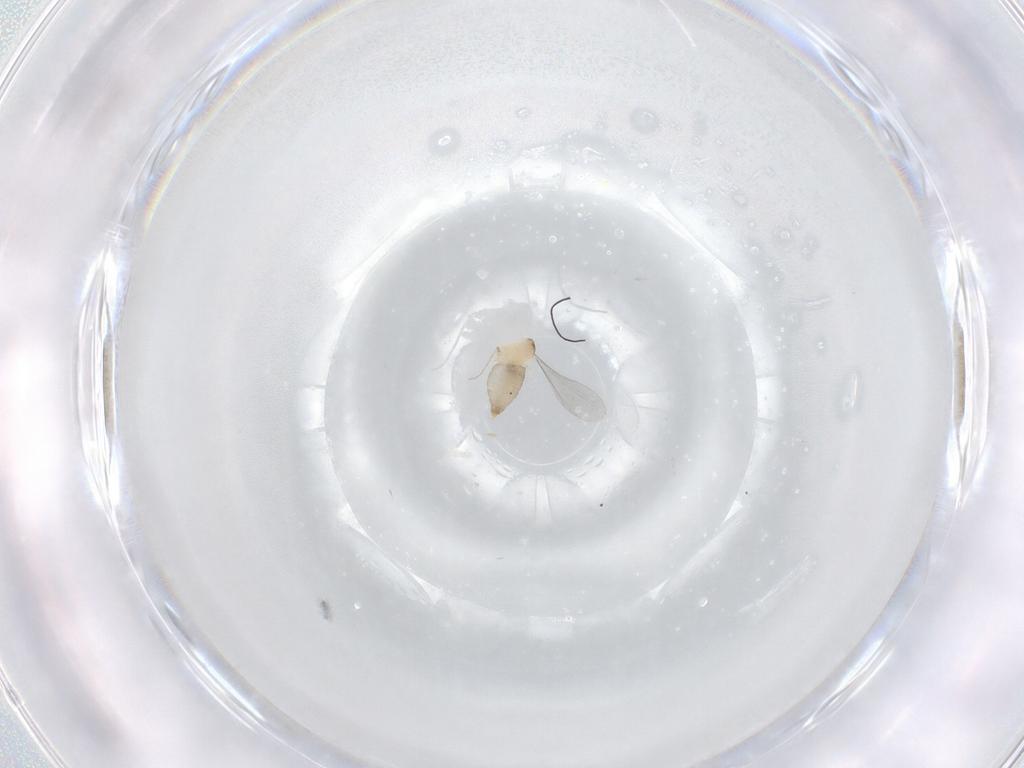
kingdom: Animalia
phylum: Arthropoda
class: Insecta
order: Diptera
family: Cecidomyiidae
